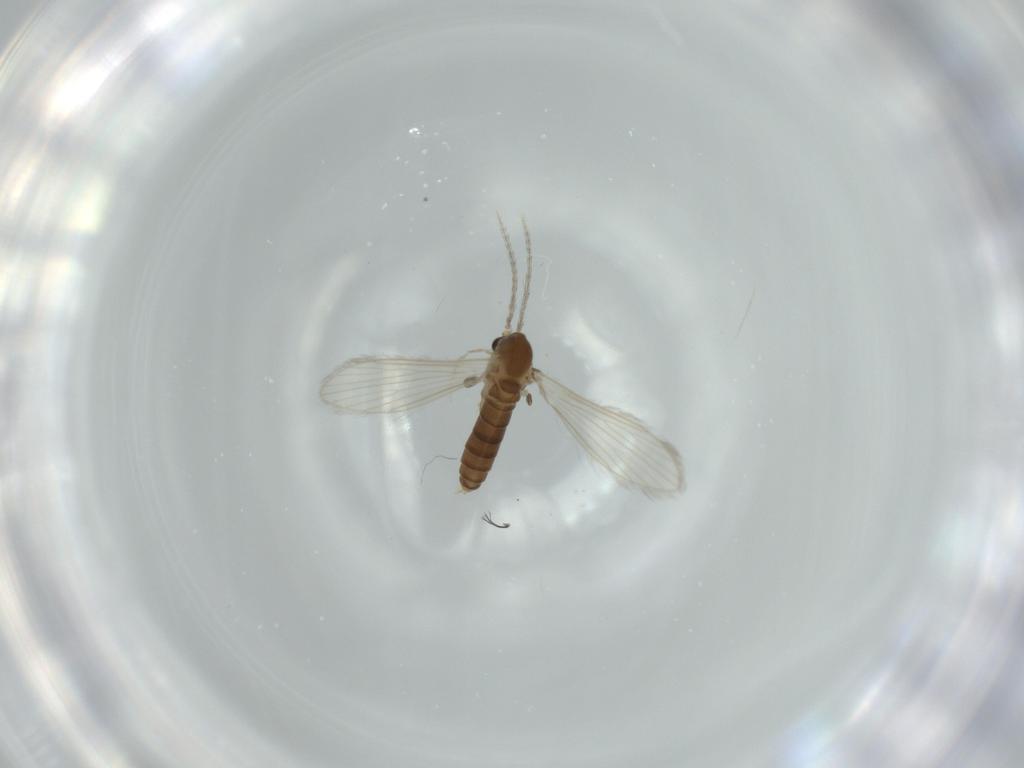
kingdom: Animalia
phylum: Arthropoda
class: Insecta
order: Diptera
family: Psychodidae
